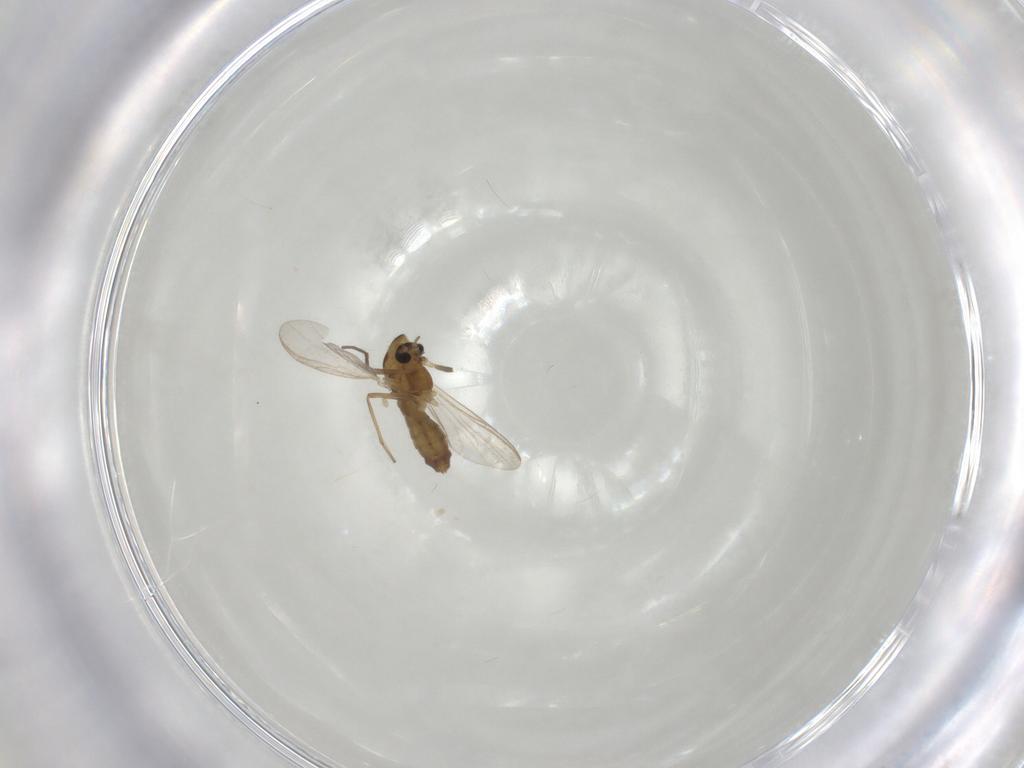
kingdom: Animalia
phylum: Arthropoda
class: Insecta
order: Diptera
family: Chironomidae
